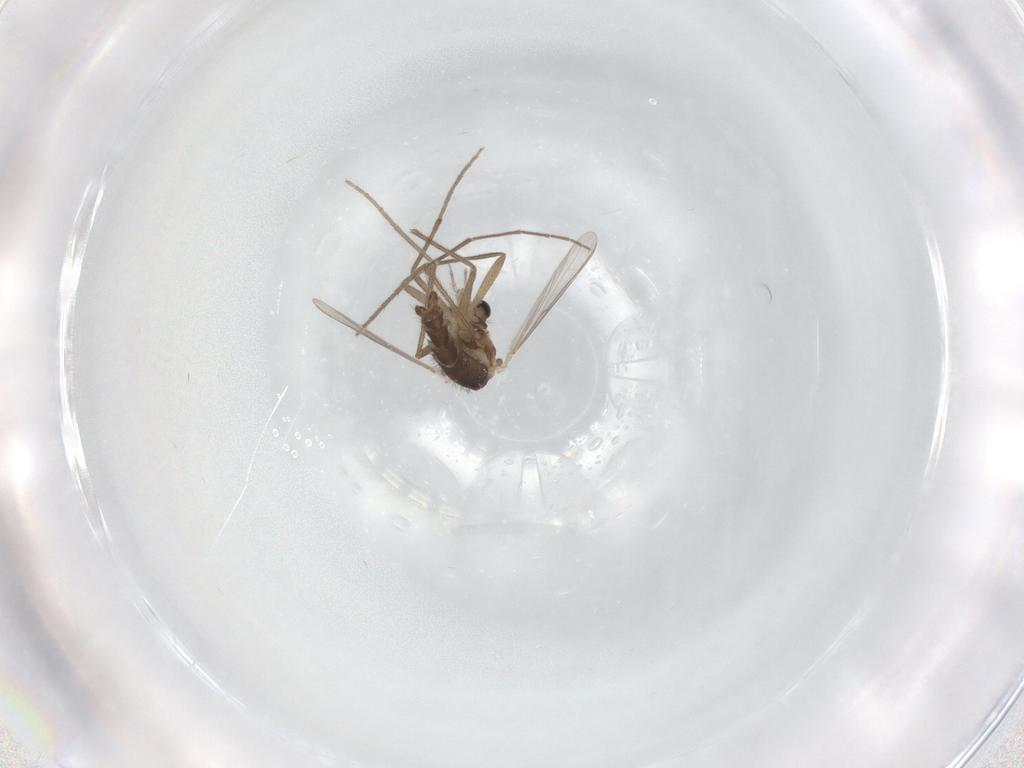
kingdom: Animalia
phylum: Arthropoda
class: Insecta
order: Diptera
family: Chironomidae
